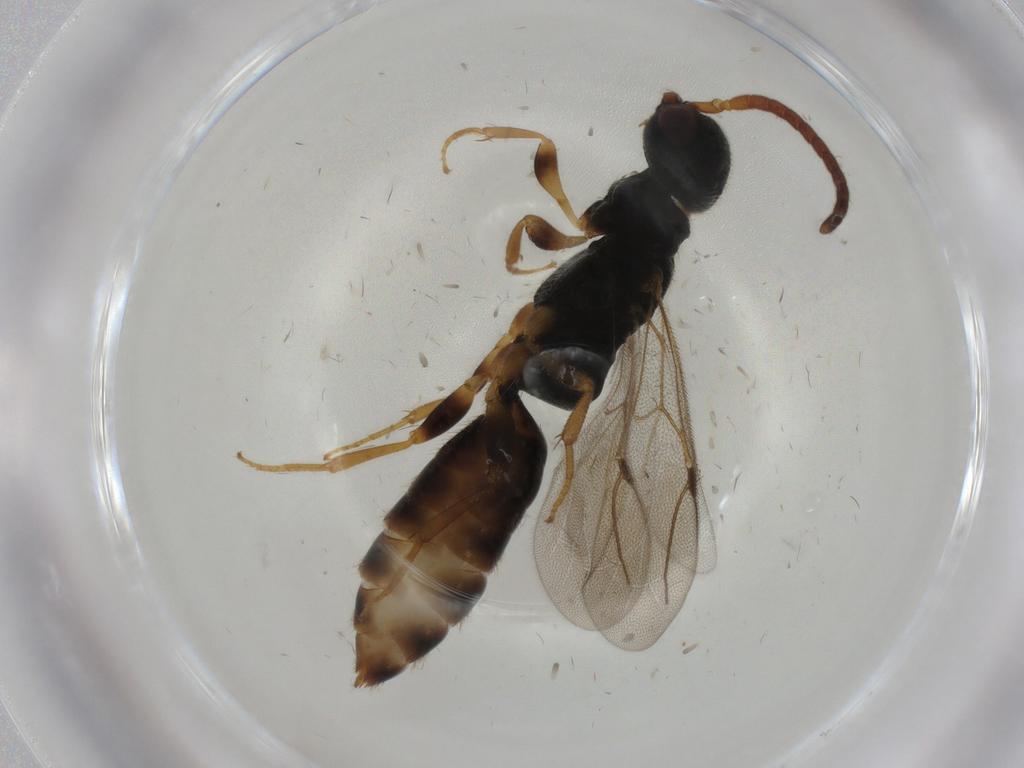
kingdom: Animalia
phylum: Arthropoda
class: Insecta
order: Hymenoptera
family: Bethylidae
